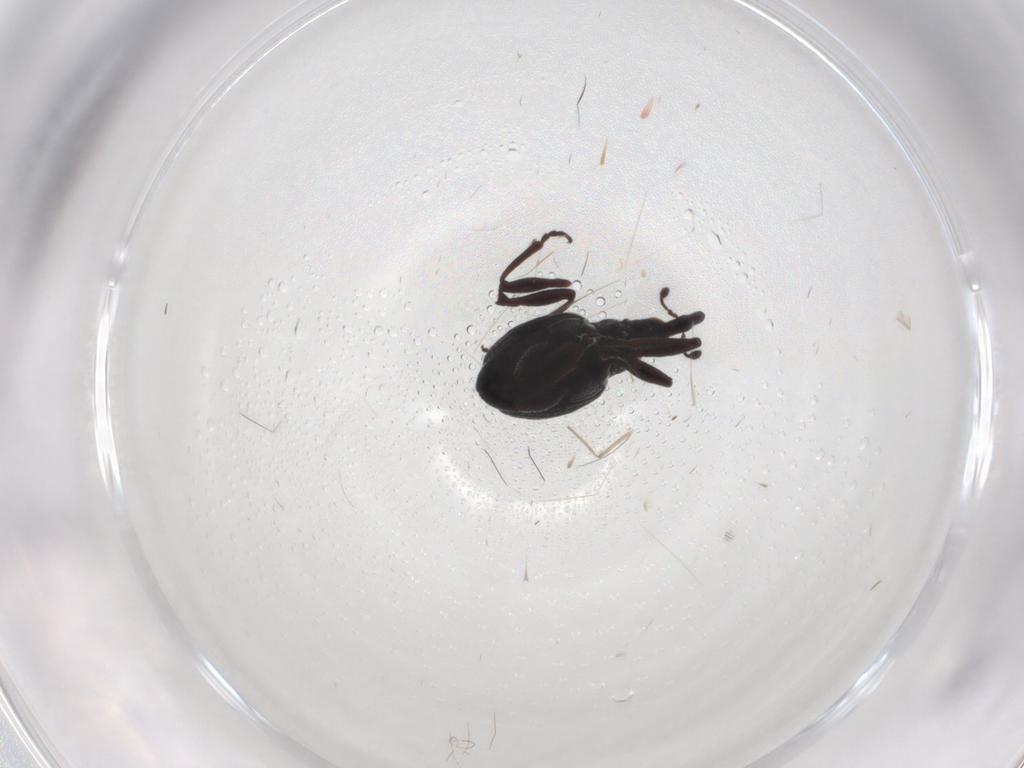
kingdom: Animalia
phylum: Arthropoda
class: Insecta
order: Coleoptera
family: Brentidae
